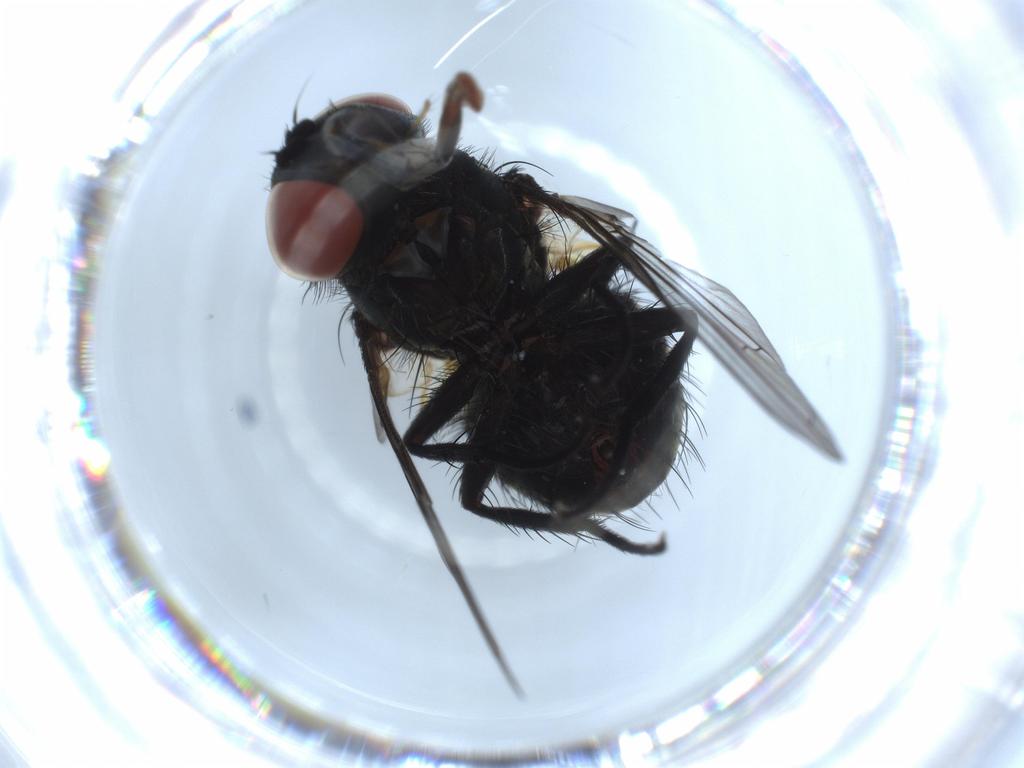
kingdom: Animalia
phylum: Arthropoda
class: Insecta
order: Diptera
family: Tachinidae
